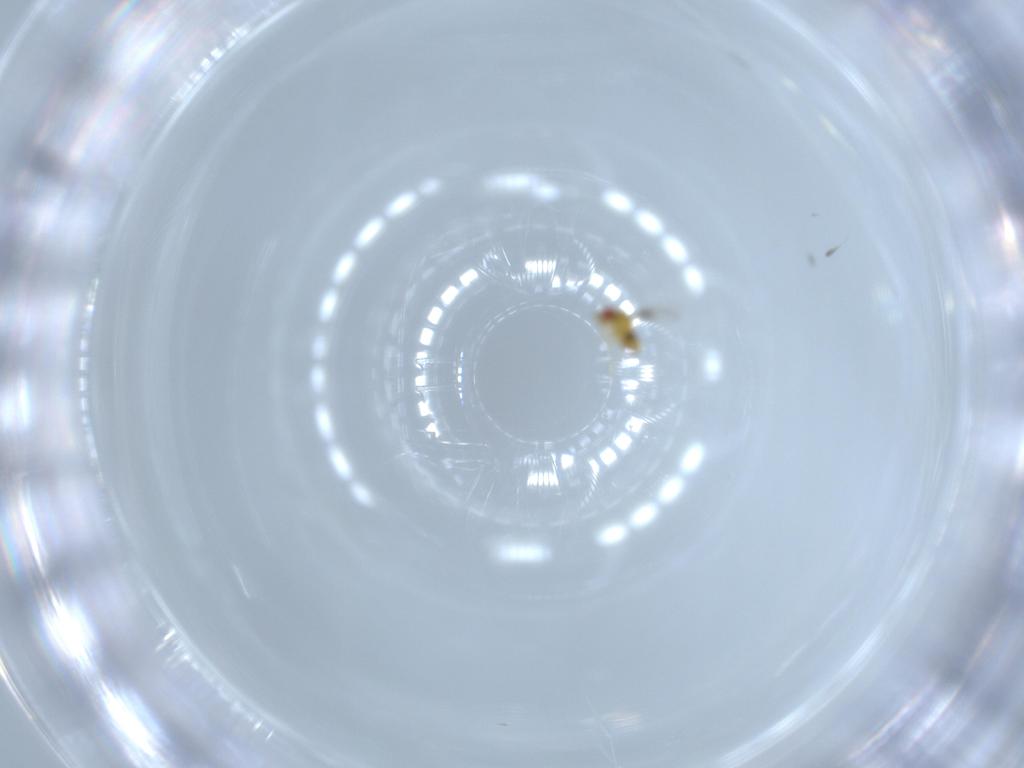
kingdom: Animalia
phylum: Arthropoda
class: Insecta
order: Hymenoptera
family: Trichogrammatidae
